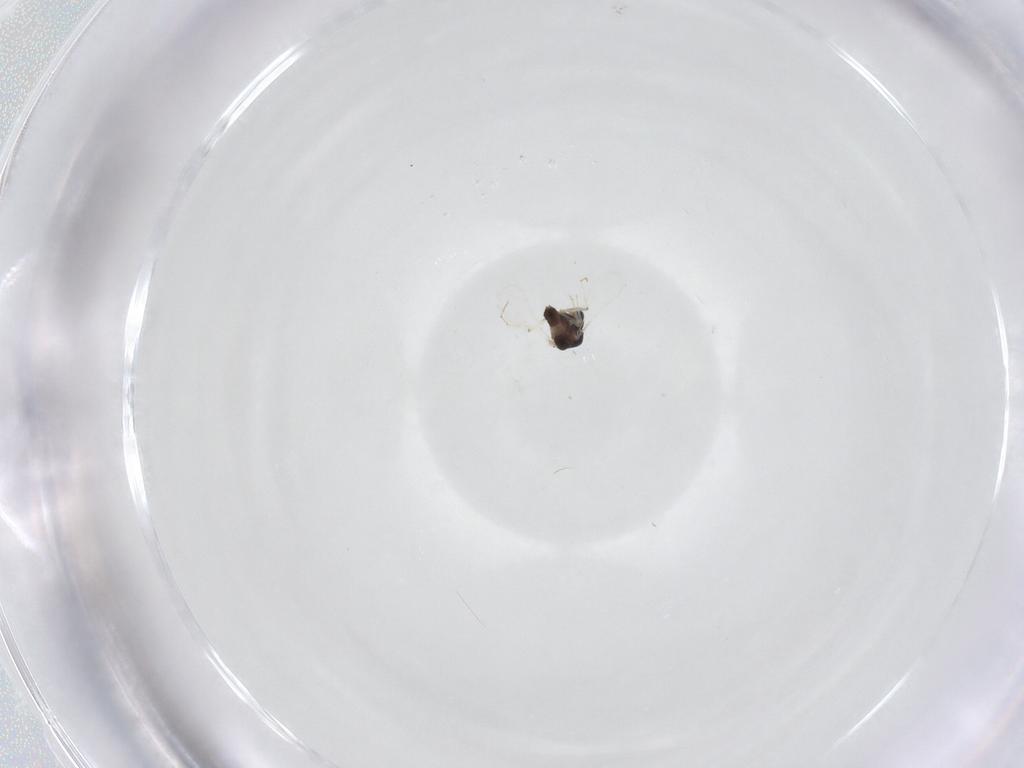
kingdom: Animalia
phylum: Arthropoda
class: Insecta
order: Diptera
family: Chironomidae
